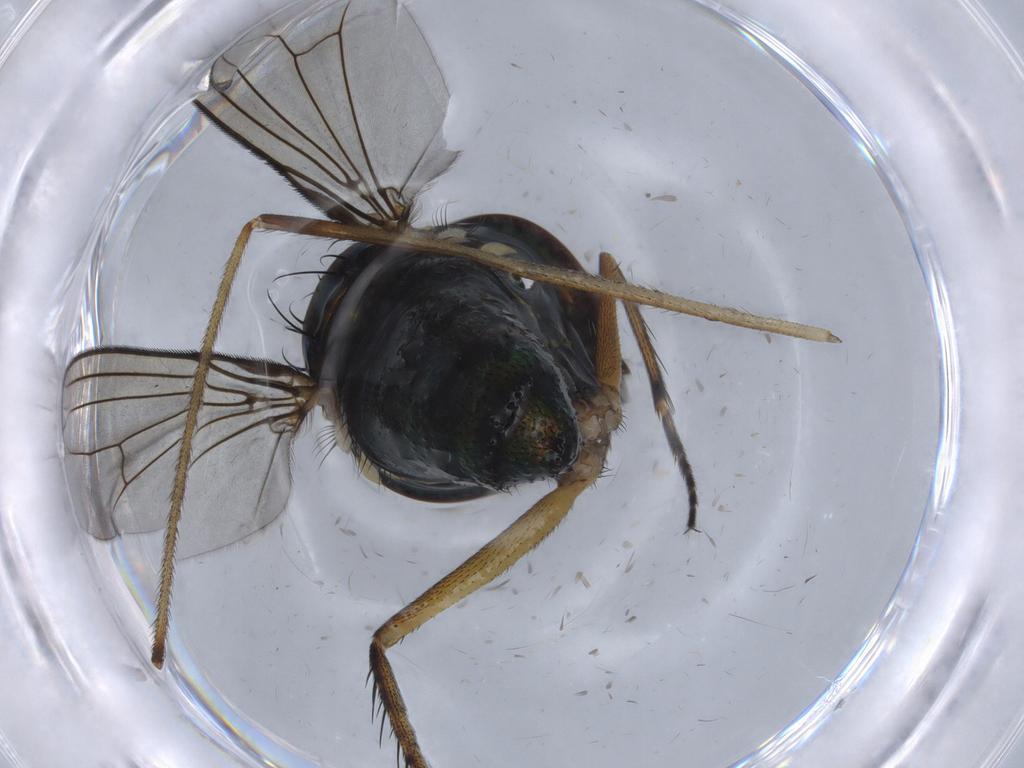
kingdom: Animalia
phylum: Arthropoda
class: Insecta
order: Diptera
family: Dolichopodidae
